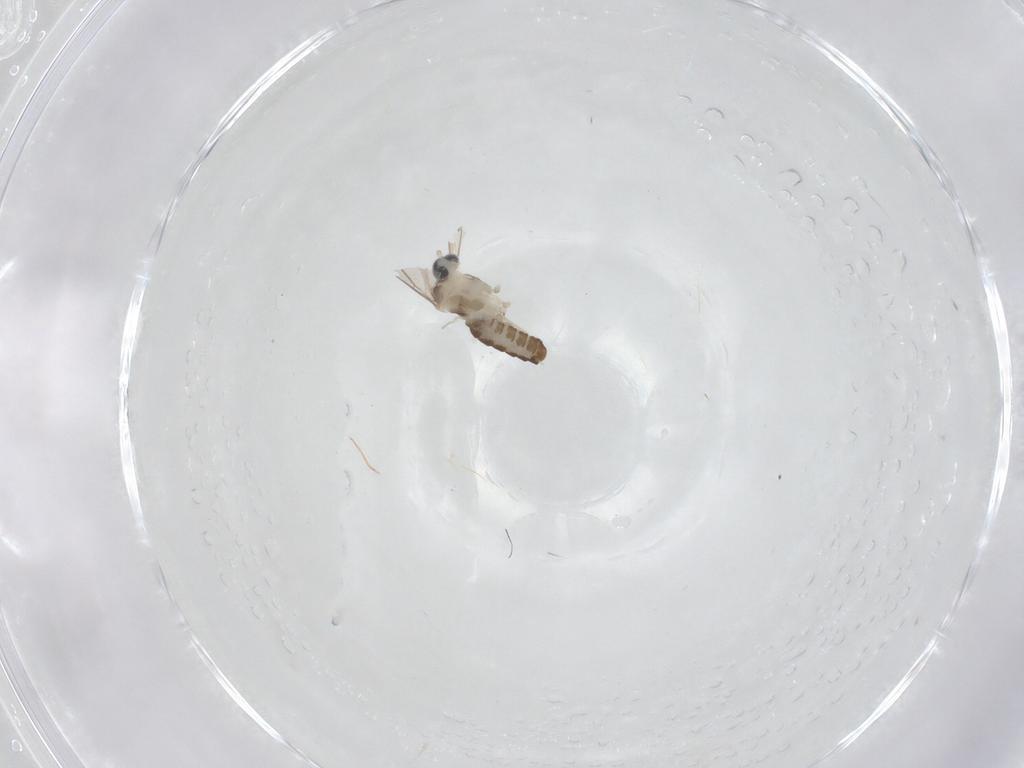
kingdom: Animalia
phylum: Arthropoda
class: Insecta
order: Diptera
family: Cecidomyiidae
